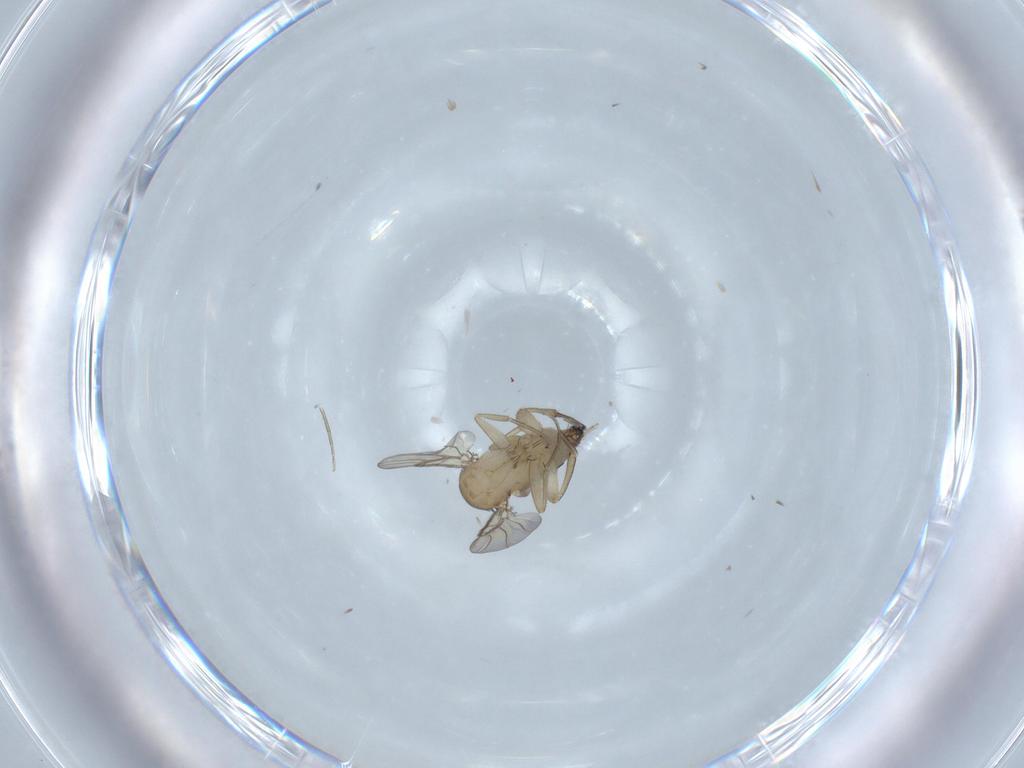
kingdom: Animalia
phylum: Arthropoda
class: Insecta
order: Diptera
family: Phoridae
